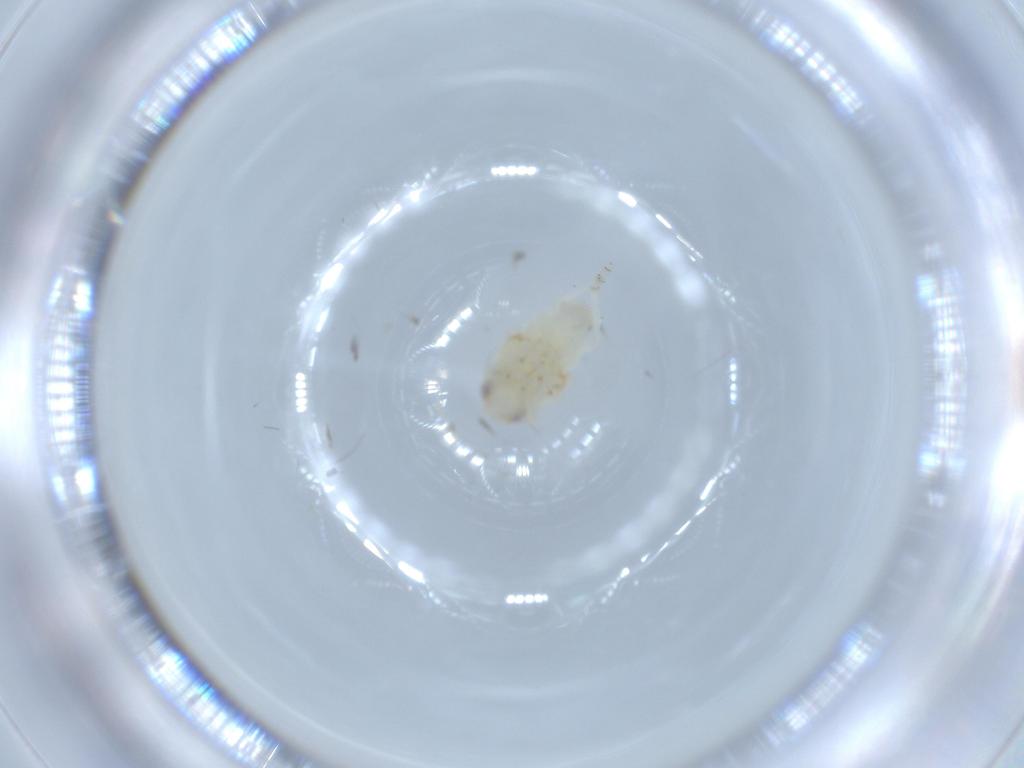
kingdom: Animalia
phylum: Arthropoda
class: Insecta
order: Hemiptera
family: Nogodinidae
